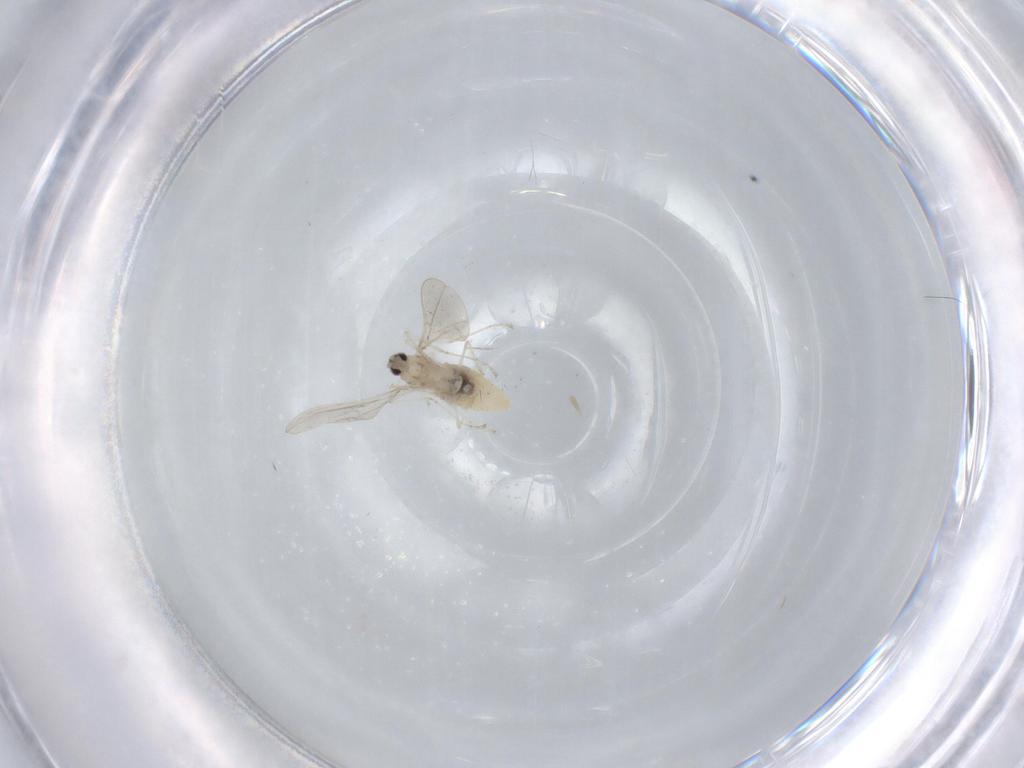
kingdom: Animalia
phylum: Arthropoda
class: Insecta
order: Diptera
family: Cecidomyiidae
